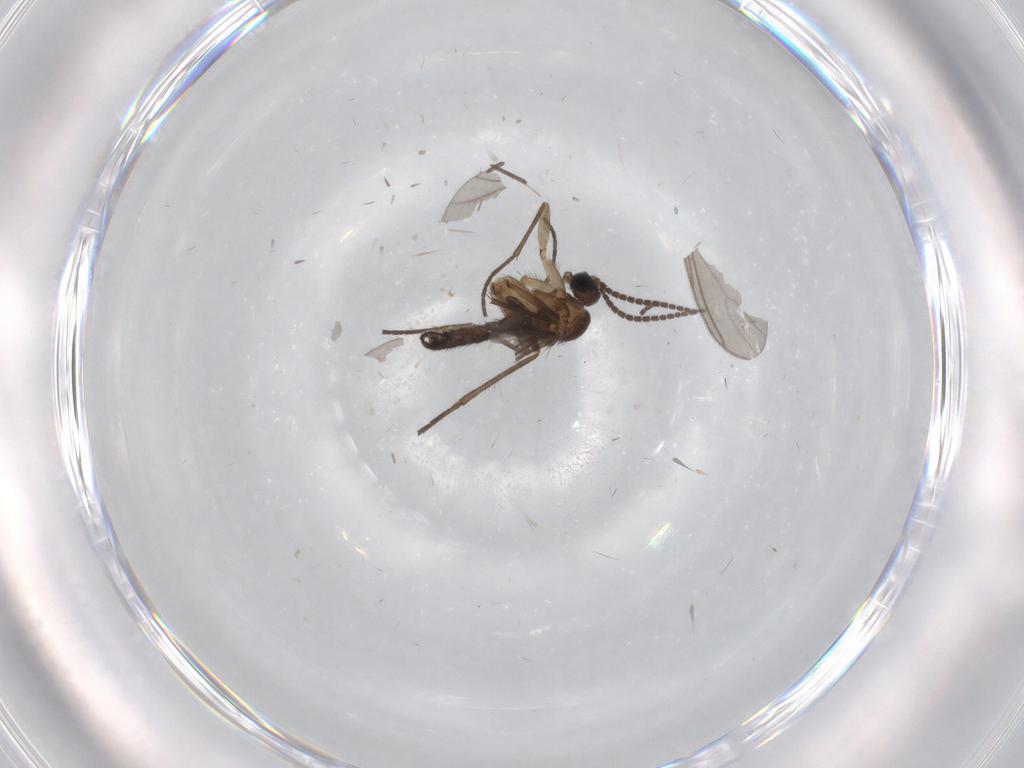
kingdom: Animalia
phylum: Arthropoda
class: Insecta
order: Diptera
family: Sciaridae
